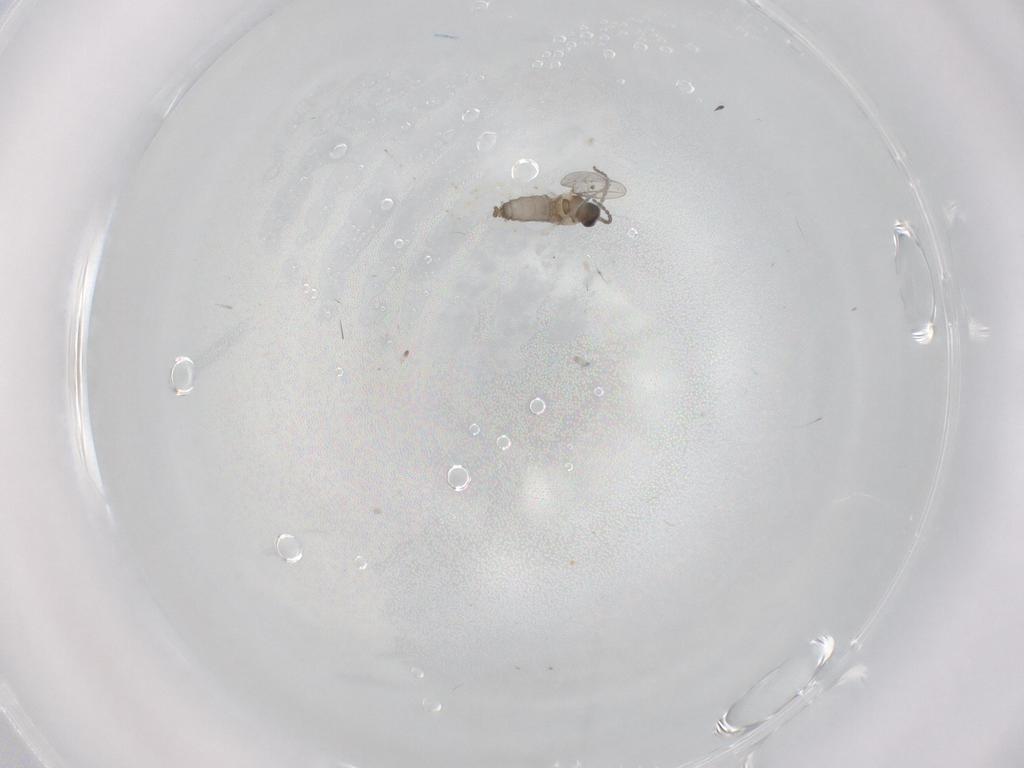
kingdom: Animalia
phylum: Arthropoda
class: Insecta
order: Diptera
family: Cecidomyiidae
